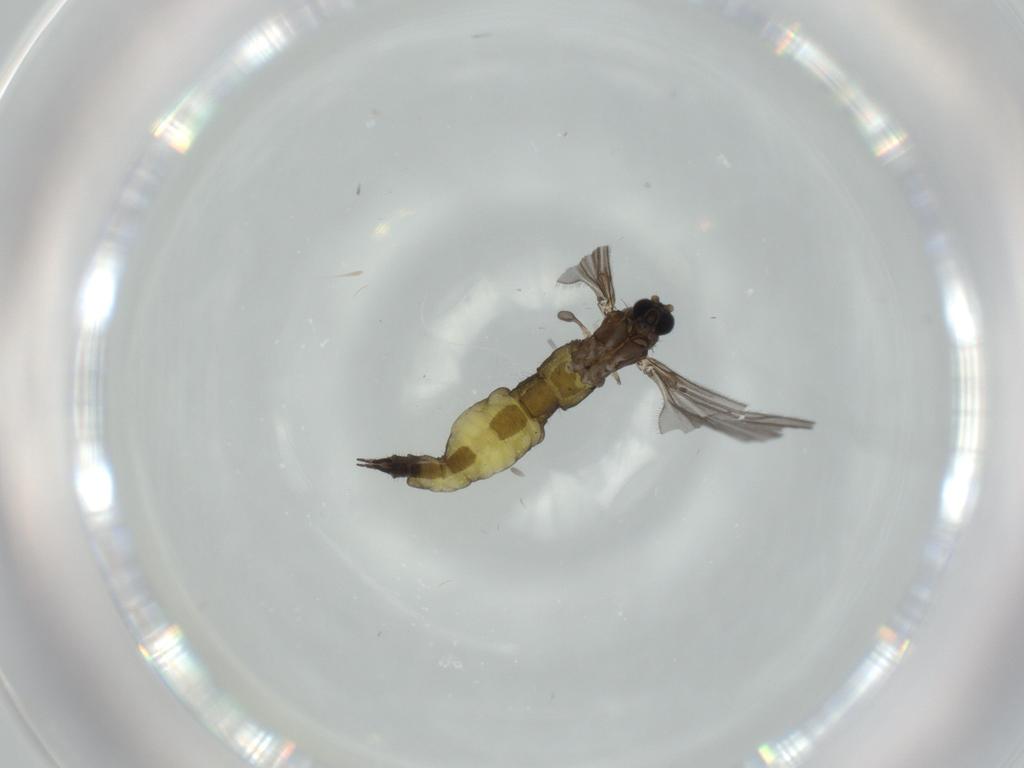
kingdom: Animalia
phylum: Arthropoda
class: Insecta
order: Diptera
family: Sciaridae
